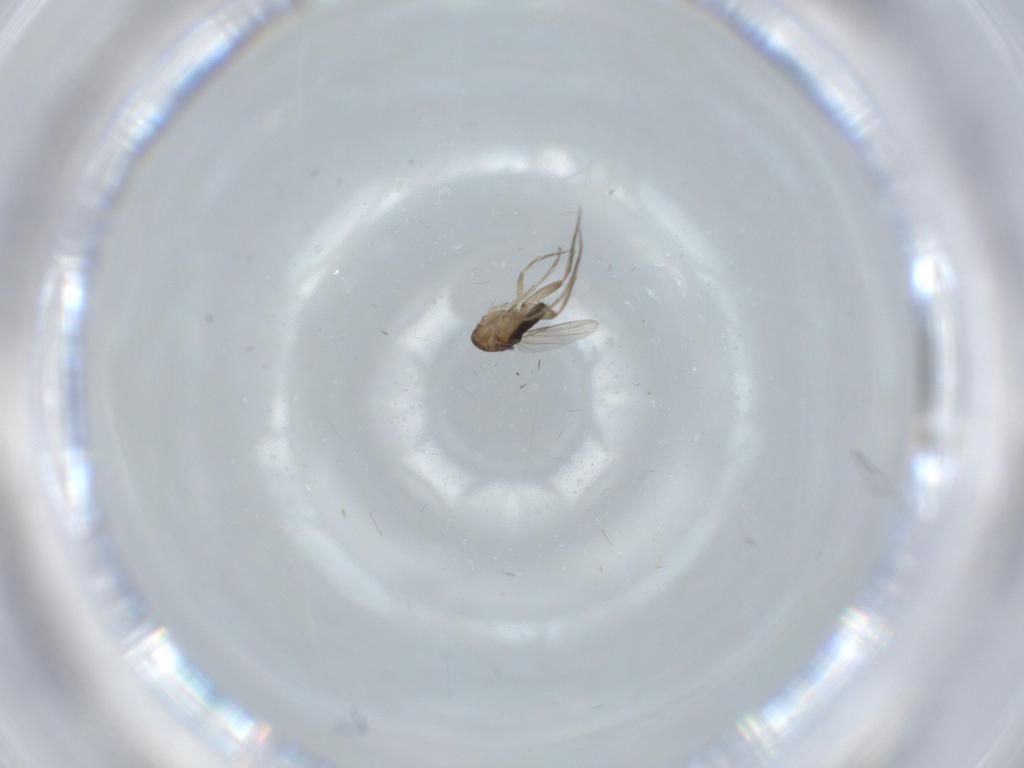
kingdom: Animalia
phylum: Arthropoda
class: Insecta
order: Diptera
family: Phoridae
